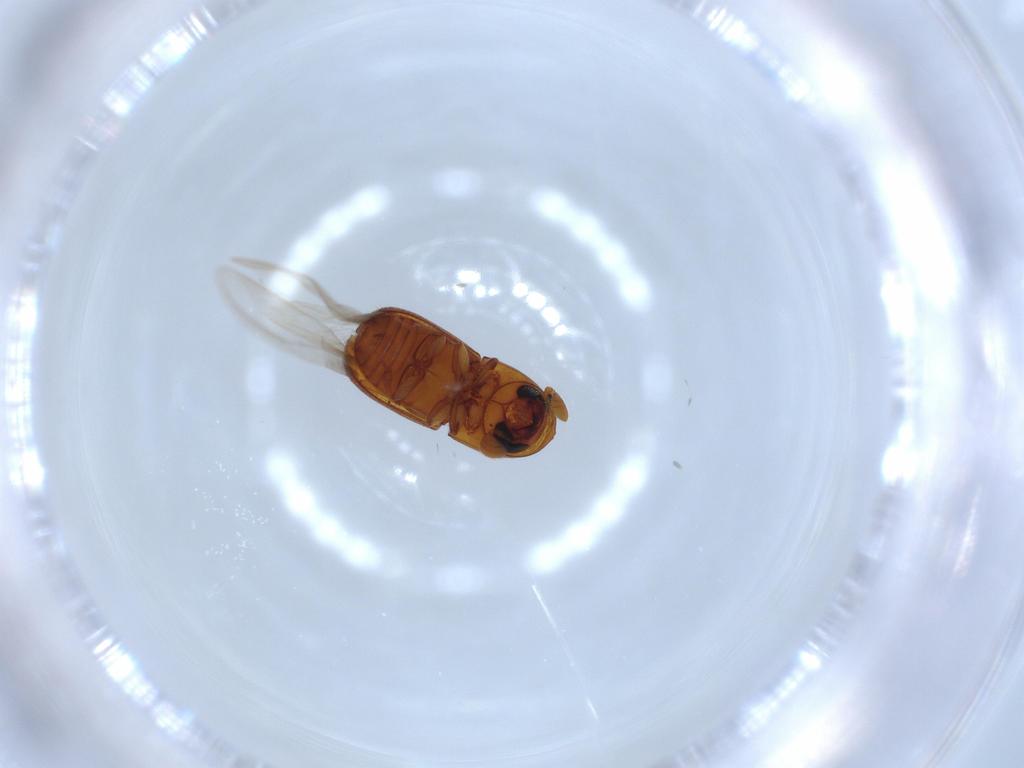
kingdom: Animalia
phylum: Arthropoda
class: Insecta
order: Coleoptera
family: Curculionidae
